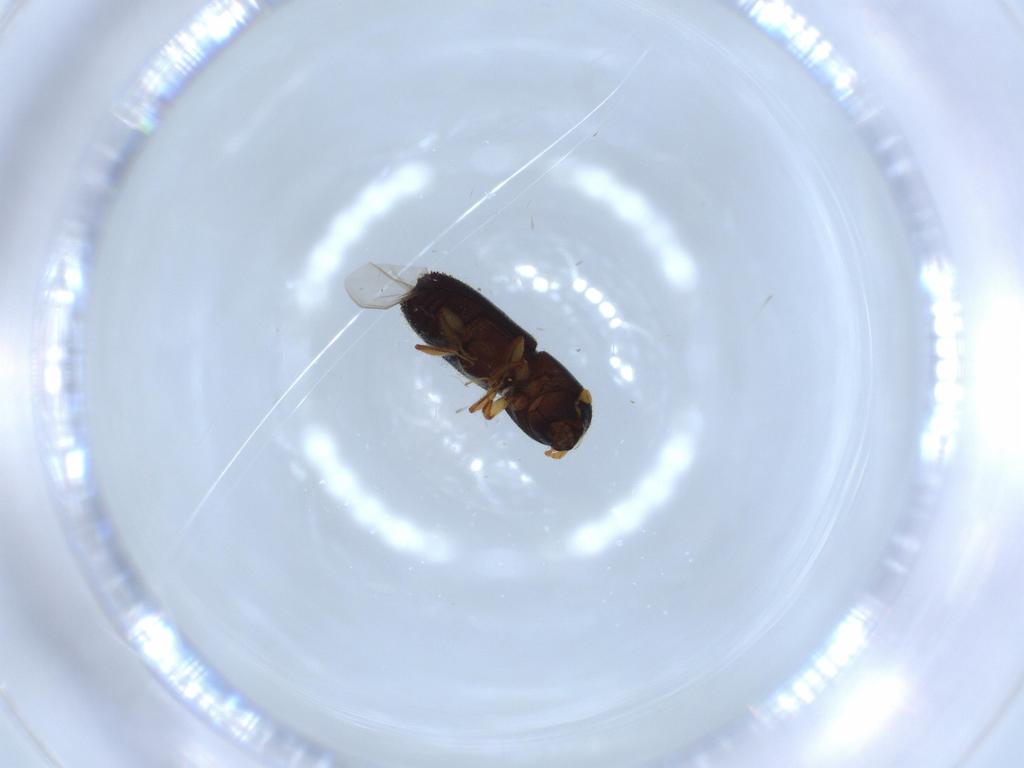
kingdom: Animalia
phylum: Arthropoda
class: Insecta
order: Coleoptera
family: Curculionidae
